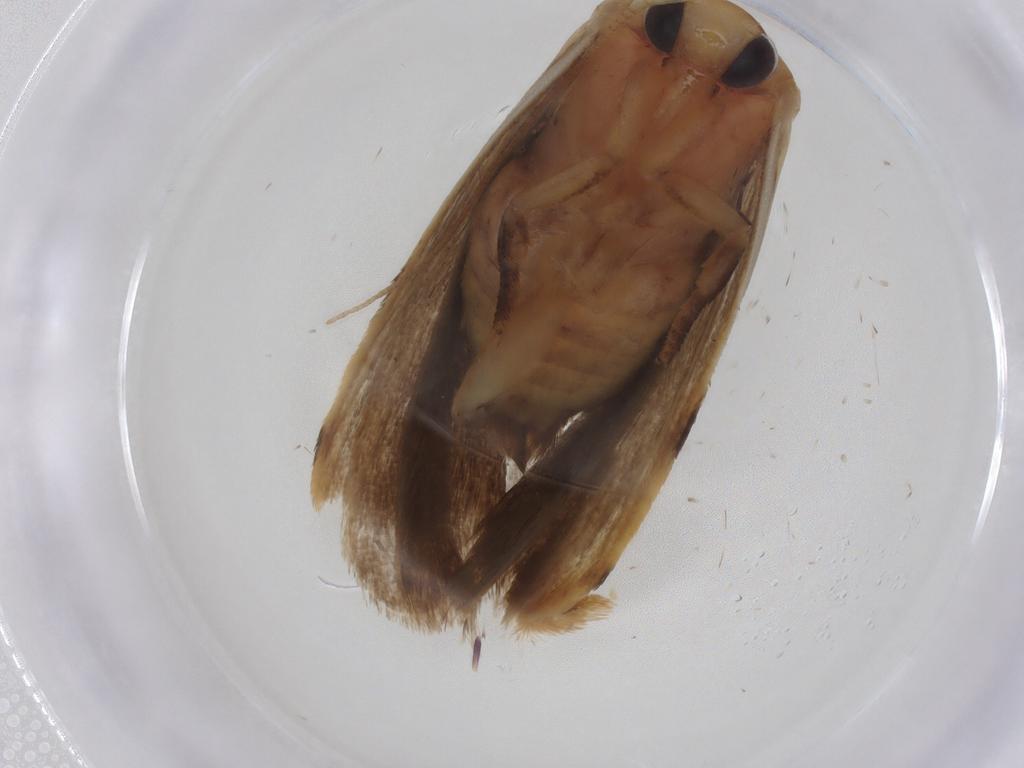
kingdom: Animalia
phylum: Arthropoda
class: Insecta
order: Lepidoptera
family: Depressariidae
